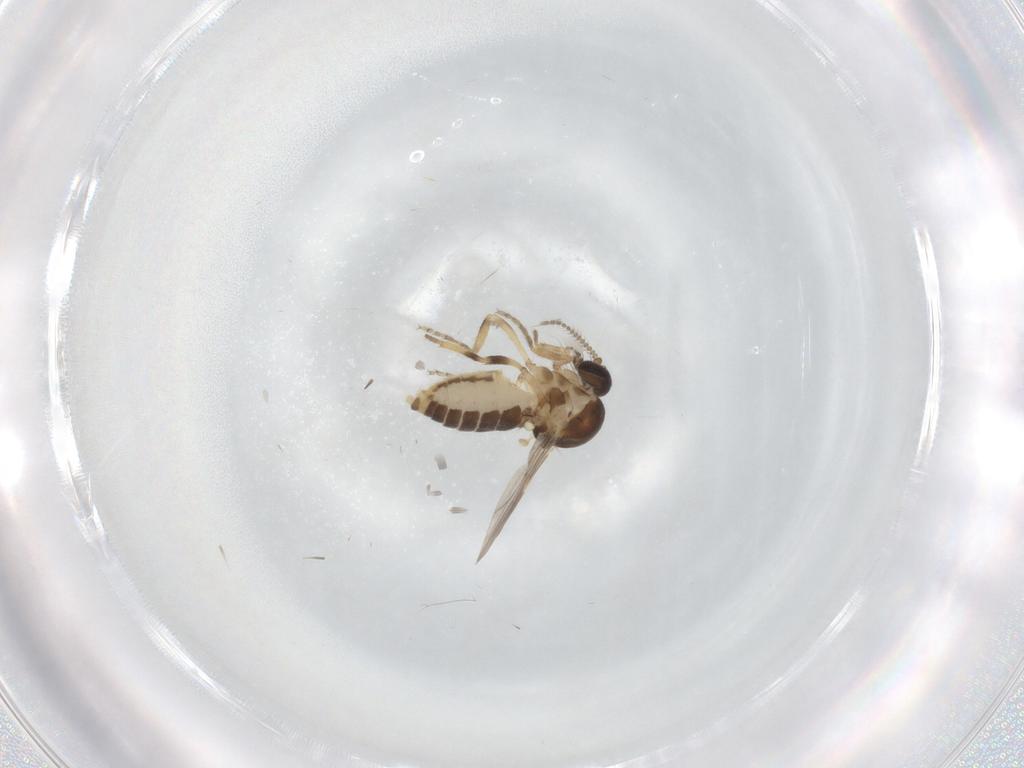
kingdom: Animalia
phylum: Arthropoda
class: Insecta
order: Diptera
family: Ceratopogonidae
